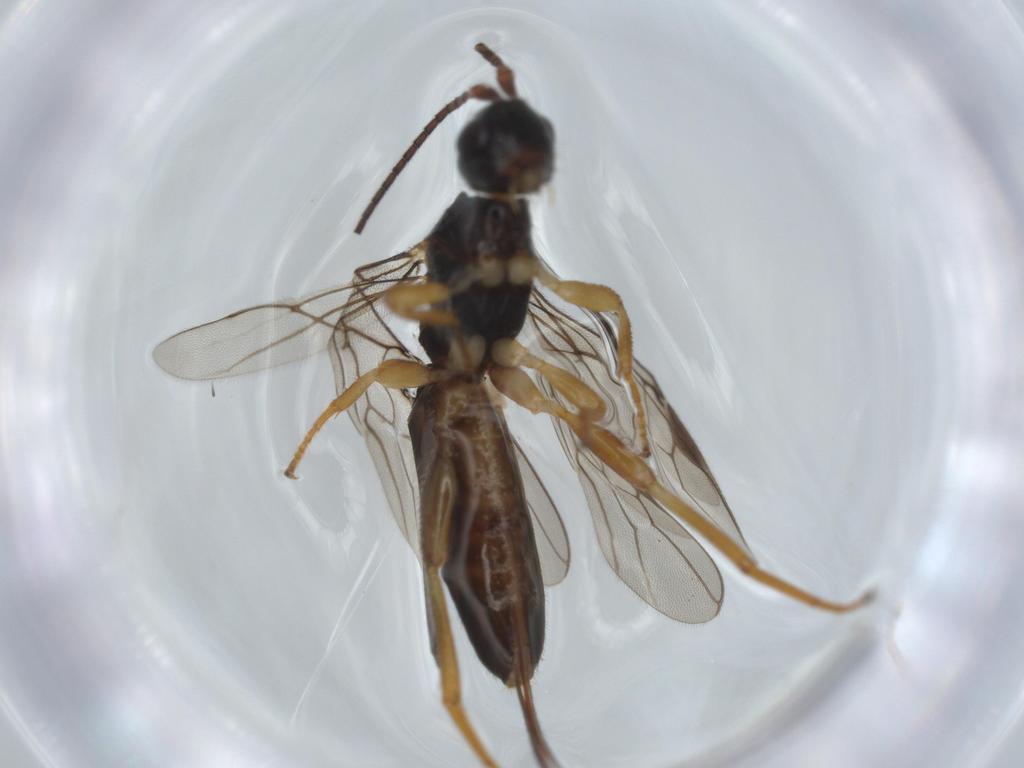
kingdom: Animalia
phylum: Arthropoda
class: Insecta
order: Hymenoptera
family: Braconidae
